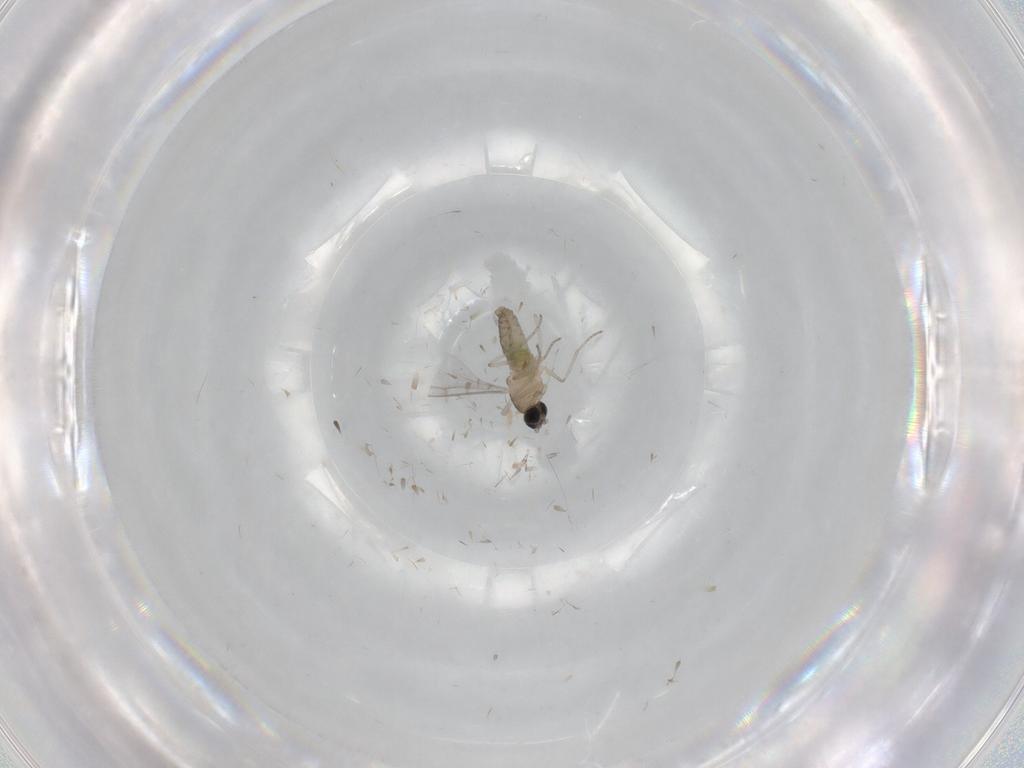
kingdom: Animalia
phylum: Arthropoda
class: Insecta
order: Diptera
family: Cecidomyiidae
